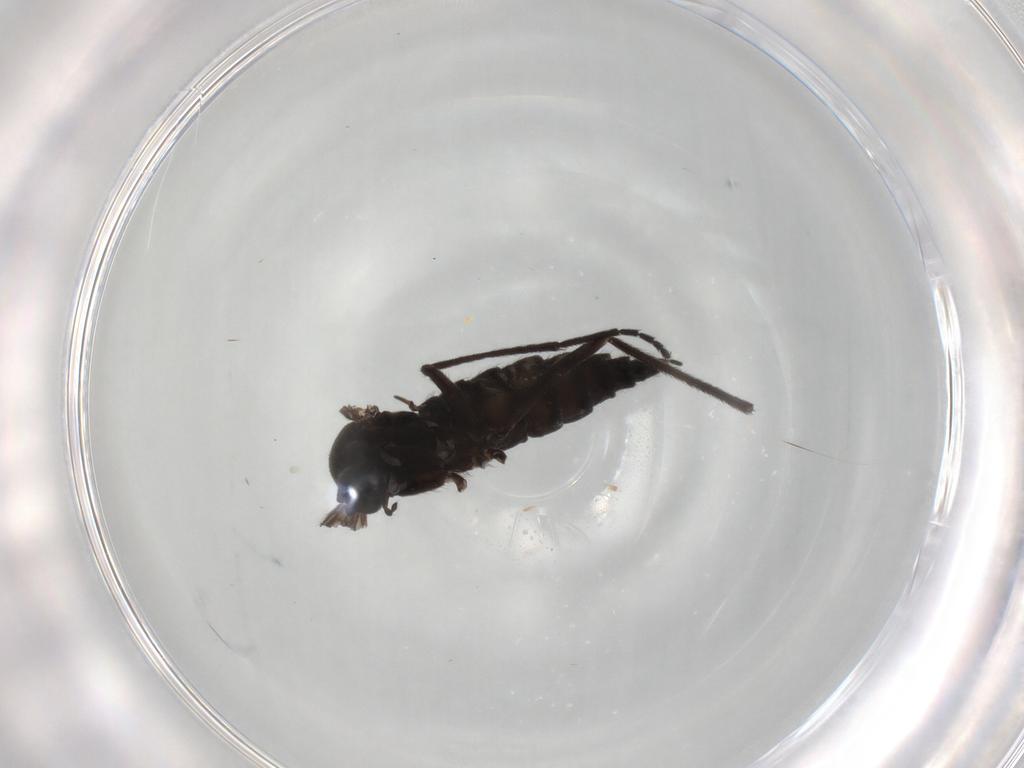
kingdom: Animalia
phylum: Arthropoda
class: Insecta
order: Diptera
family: Sciaridae
